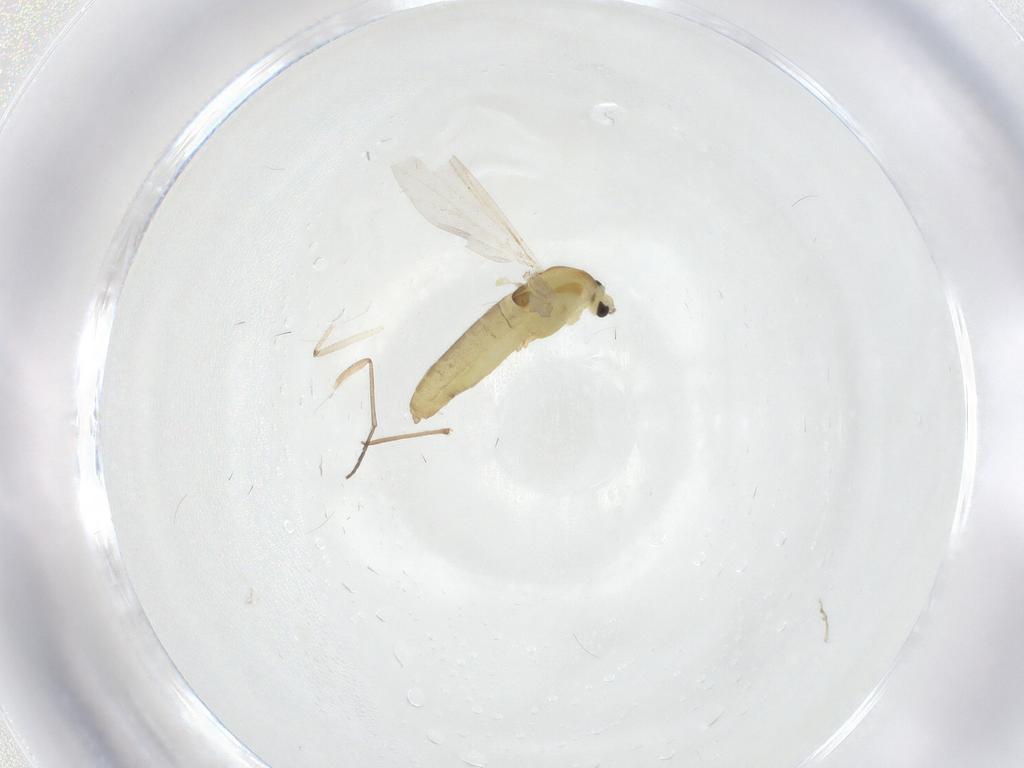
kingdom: Animalia
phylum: Arthropoda
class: Insecta
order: Diptera
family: Chironomidae
